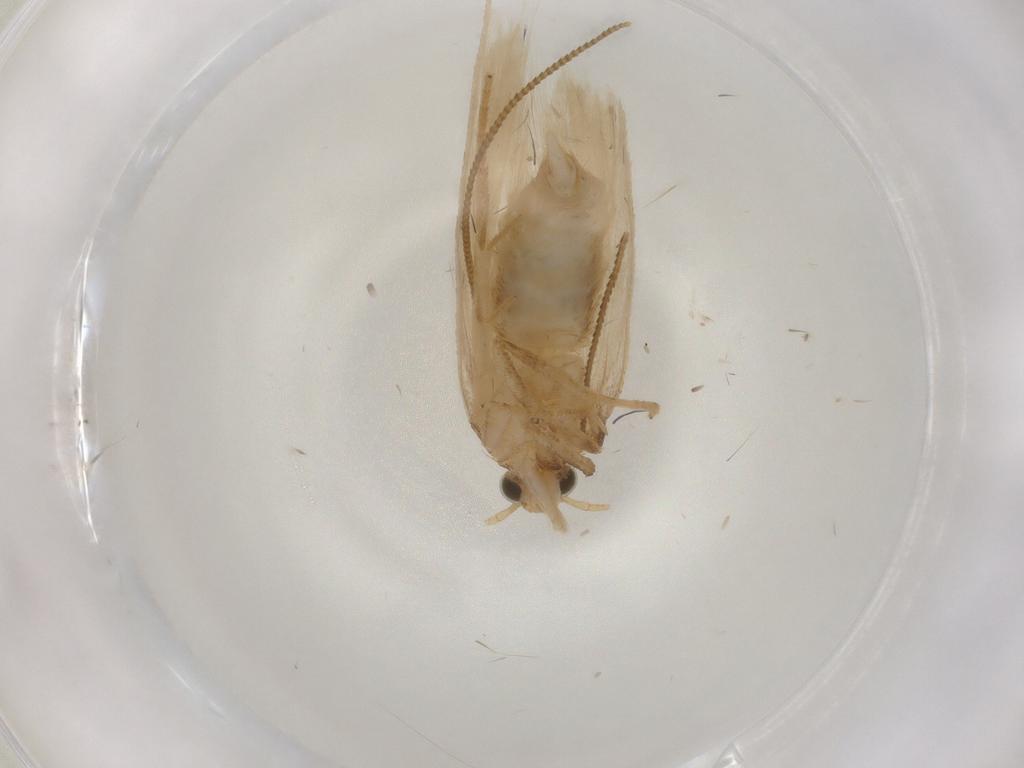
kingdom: Animalia
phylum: Arthropoda
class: Insecta
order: Lepidoptera
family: Gelechiidae
